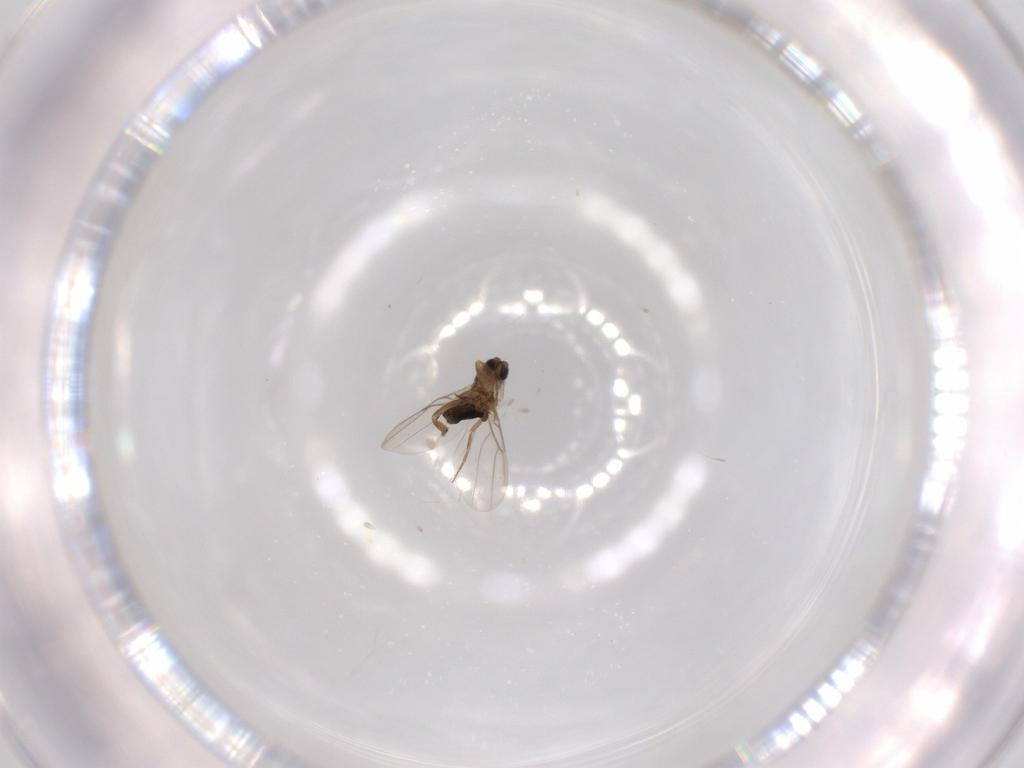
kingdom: Animalia
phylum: Arthropoda
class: Insecta
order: Diptera
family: Phoridae
